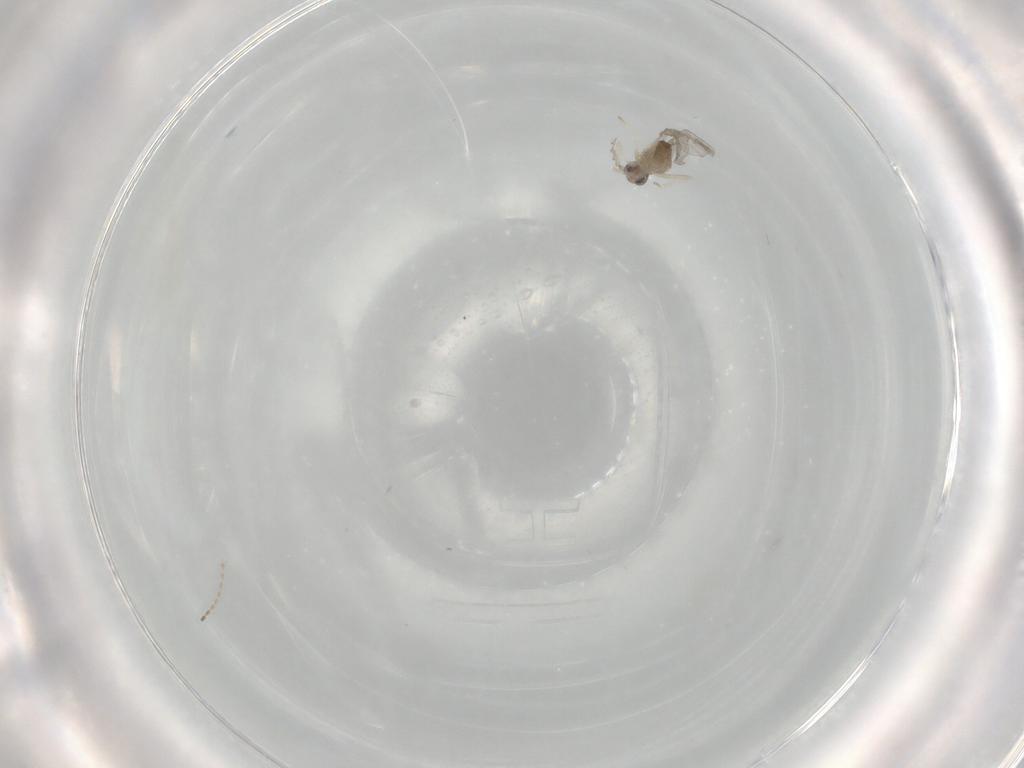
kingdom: Animalia
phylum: Arthropoda
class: Insecta
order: Diptera
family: Cecidomyiidae
